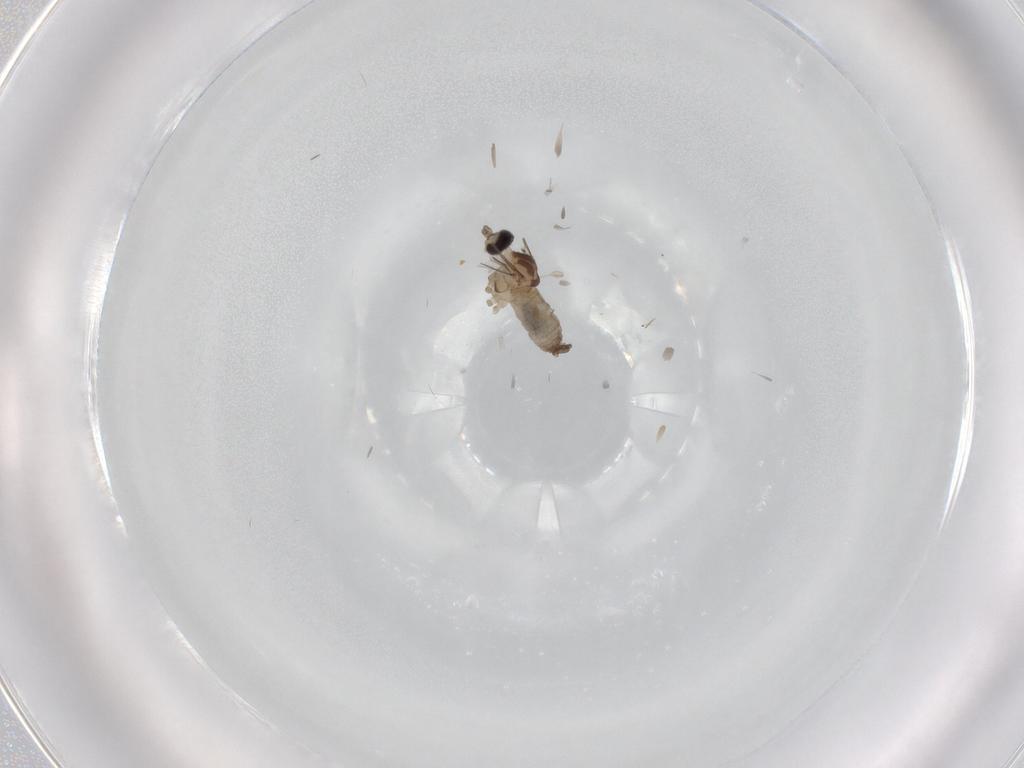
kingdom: Animalia
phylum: Arthropoda
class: Insecta
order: Diptera
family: Cecidomyiidae
